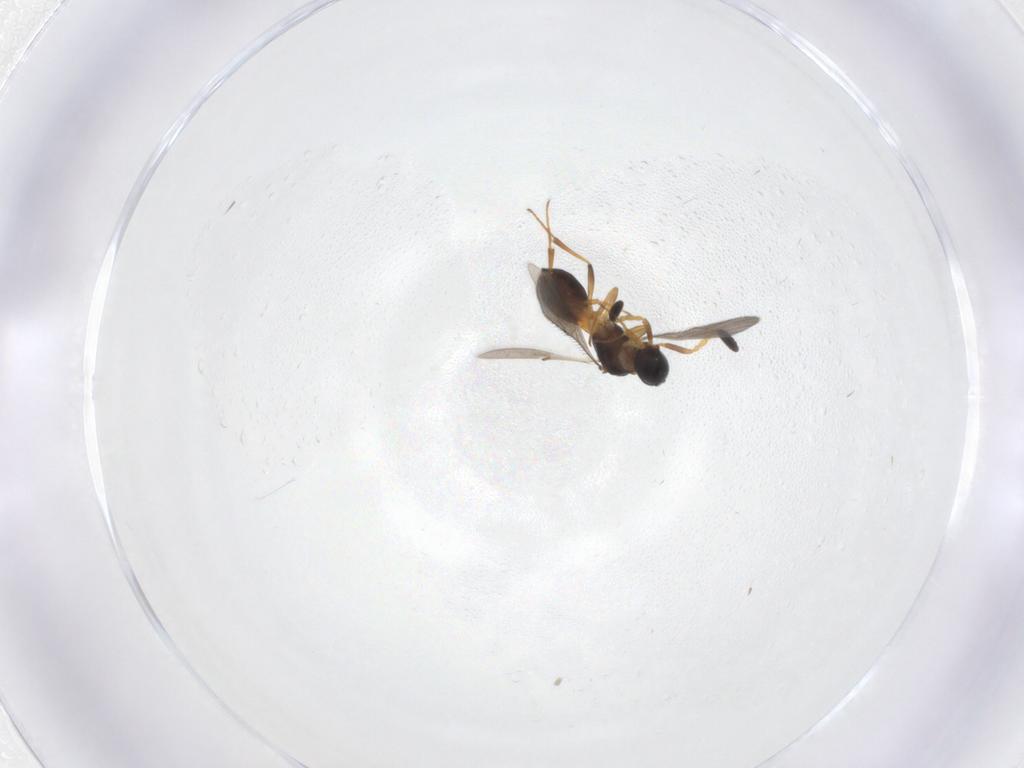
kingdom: Animalia
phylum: Arthropoda
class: Insecta
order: Hymenoptera
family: Scelionidae
